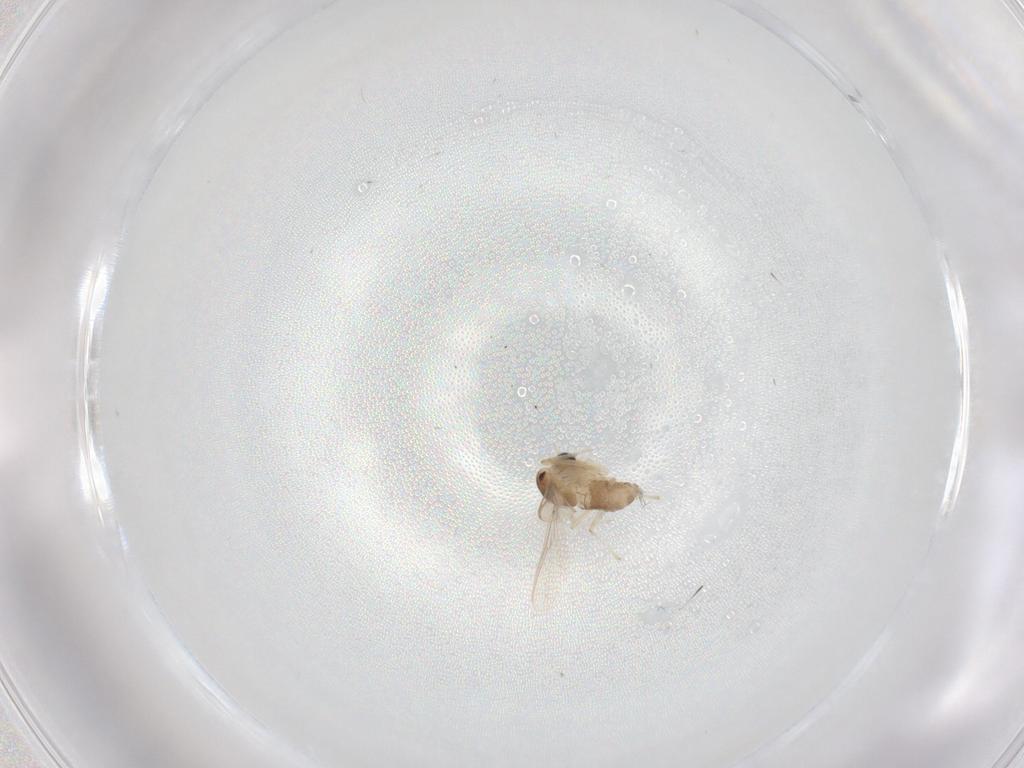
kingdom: Animalia
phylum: Arthropoda
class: Insecta
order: Diptera
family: Chironomidae
